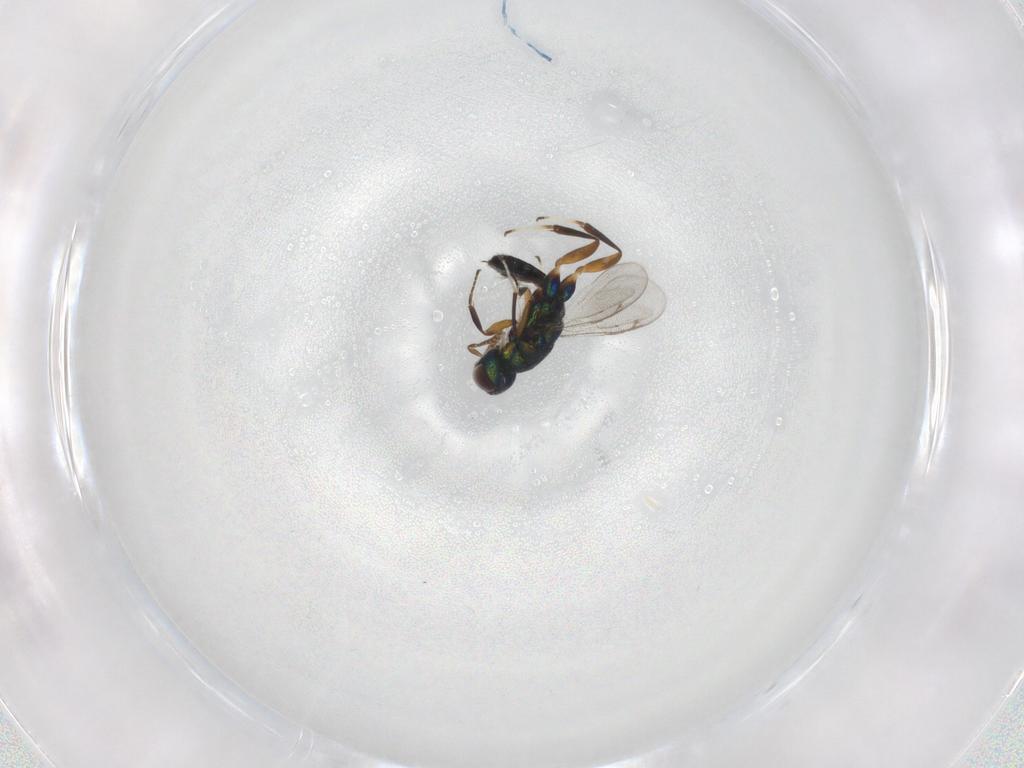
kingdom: Animalia
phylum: Arthropoda
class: Insecta
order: Hymenoptera
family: Cleonyminae
